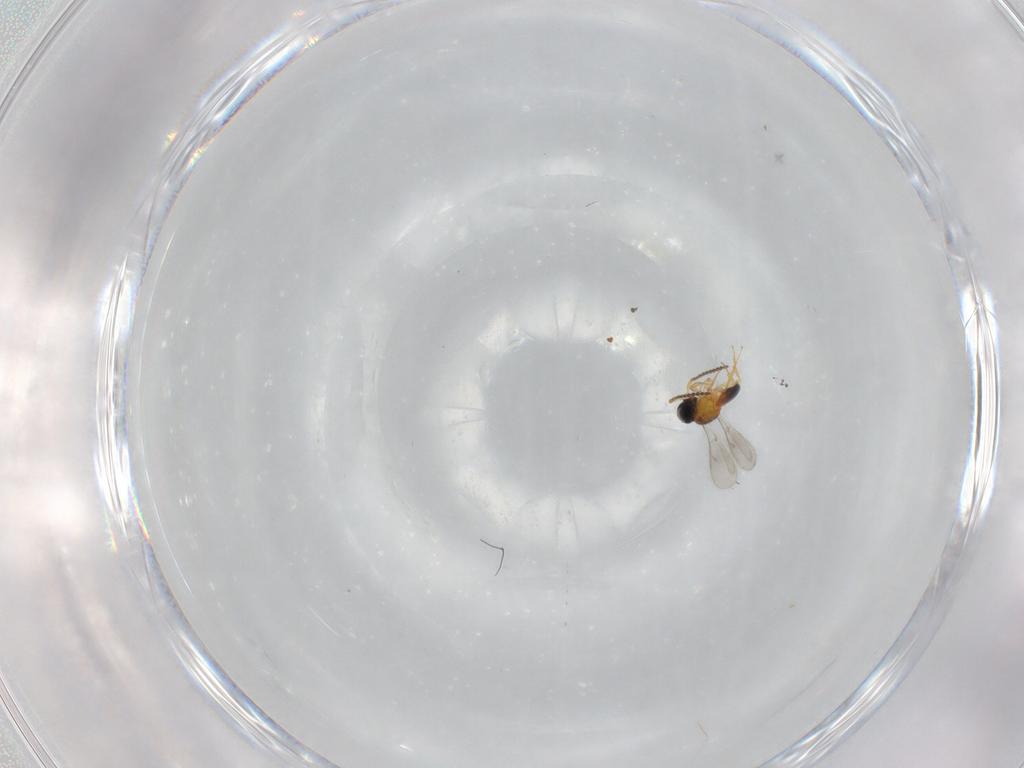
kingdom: Animalia
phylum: Arthropoda
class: Insecta
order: Hymenoptera
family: Scelionidae
